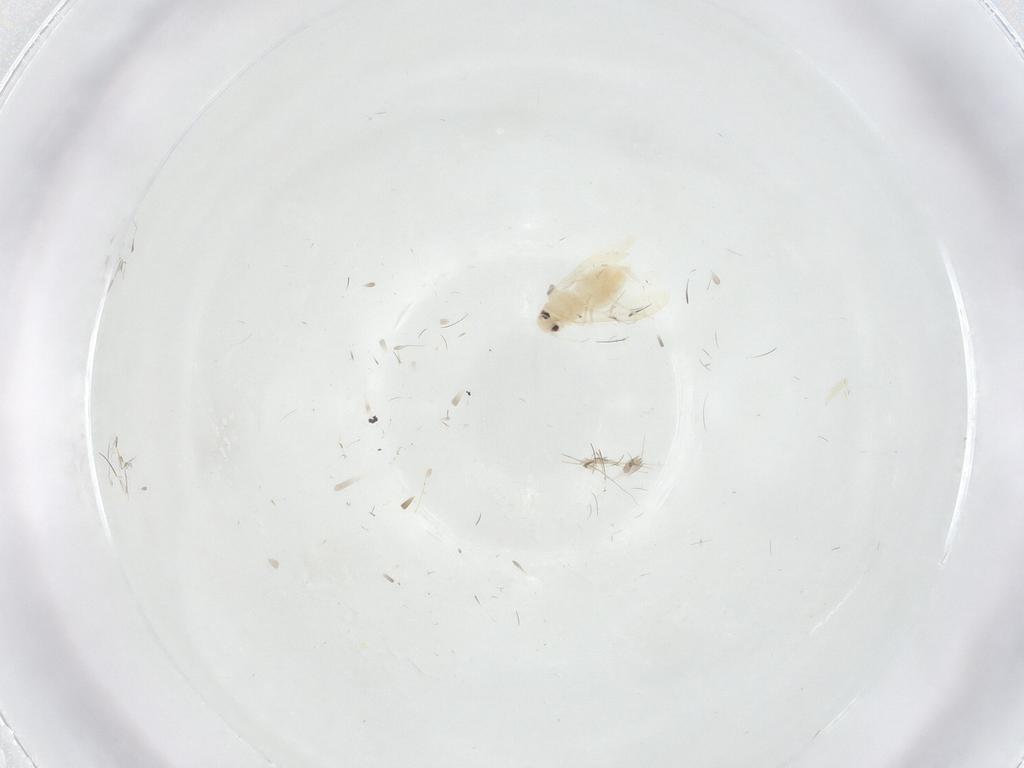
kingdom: Animalia
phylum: Arthropoda
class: Insecta
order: Hemiptera
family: Aleyrodidae
